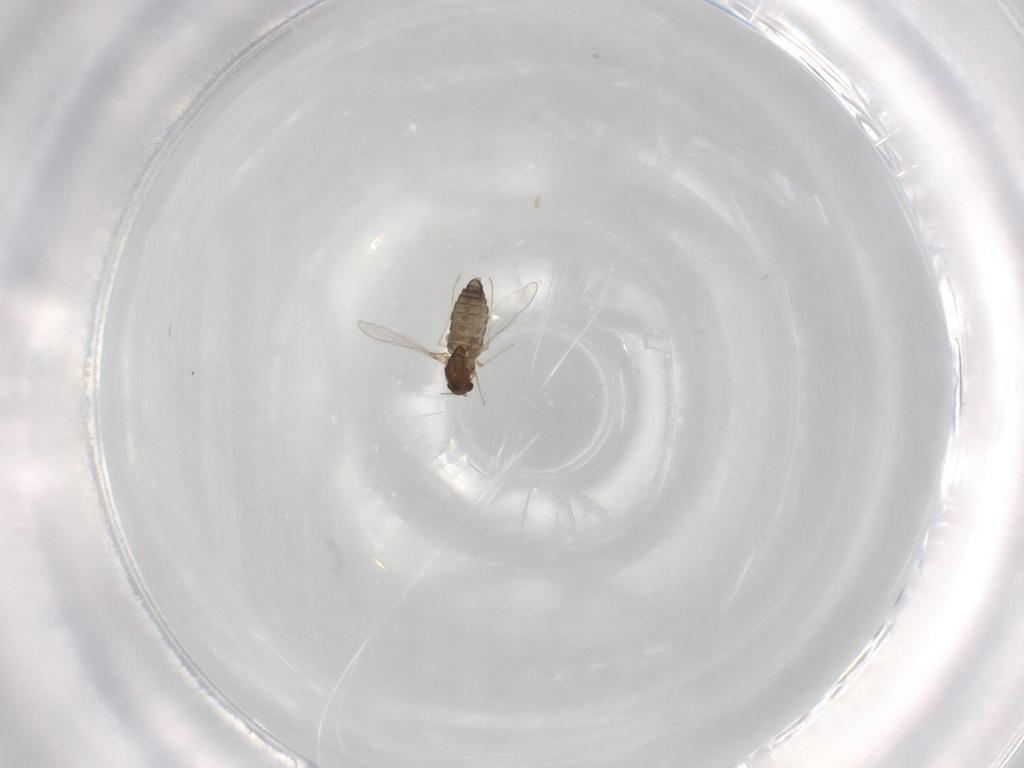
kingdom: Animalia
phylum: Arthropoda
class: Insecta
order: Diptera
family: Chironomidae
